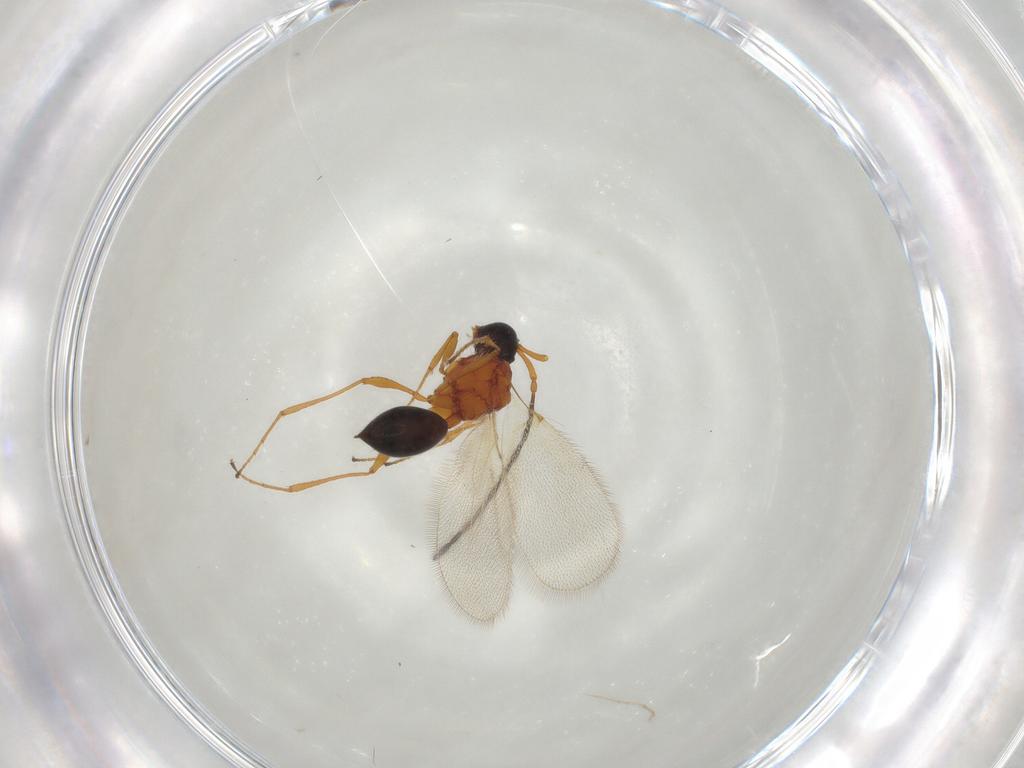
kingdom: Animalia
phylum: Arthropoda
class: Insecta
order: Hymenoptera
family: Diapriidae
